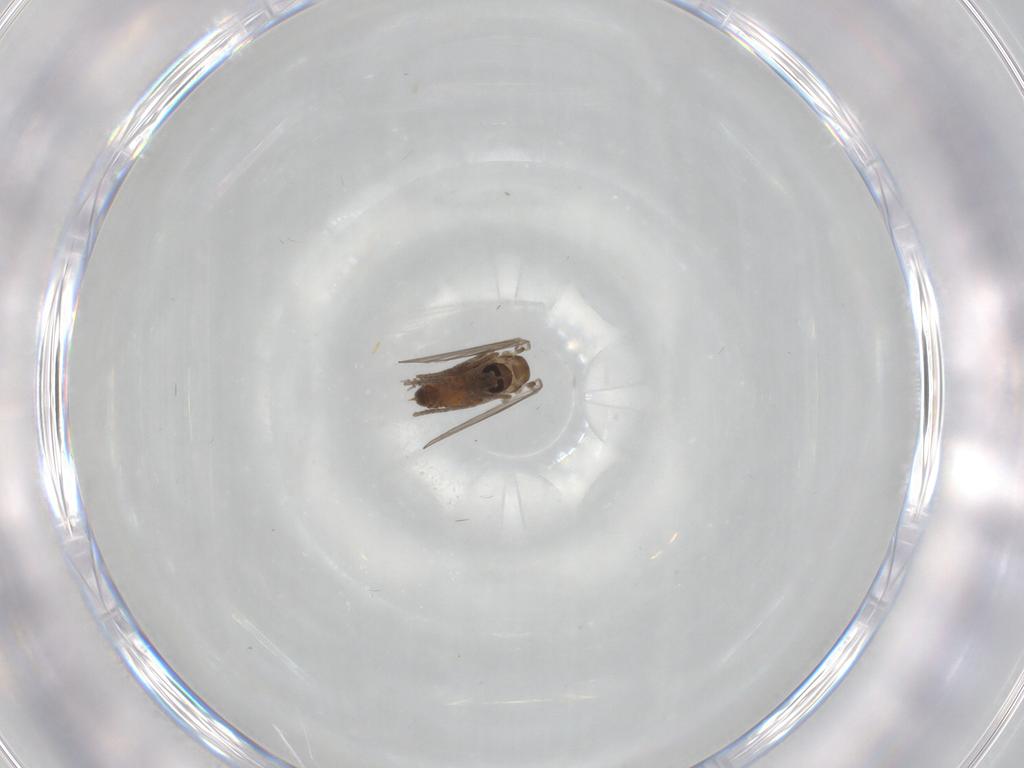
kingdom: Animalia
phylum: Arthropoda
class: Insecta
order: Diptera
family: Psychodidae
